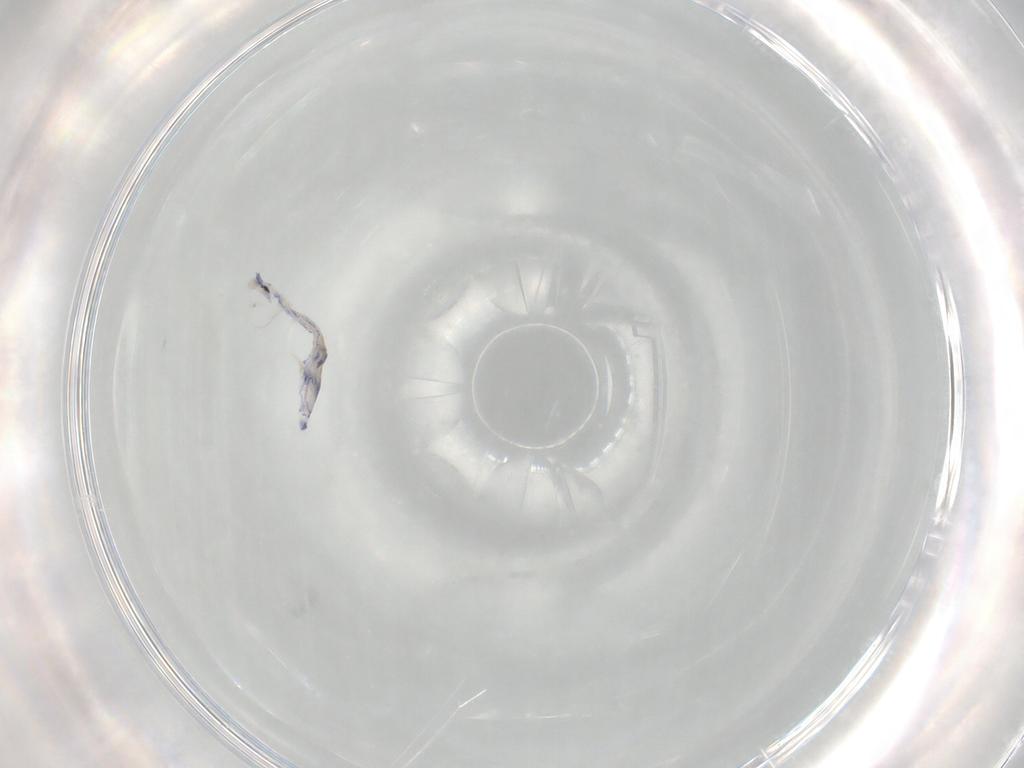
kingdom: Animalia
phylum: Arthropoda
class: Collembola
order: Entomobryomorpha
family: Entomobryidae
